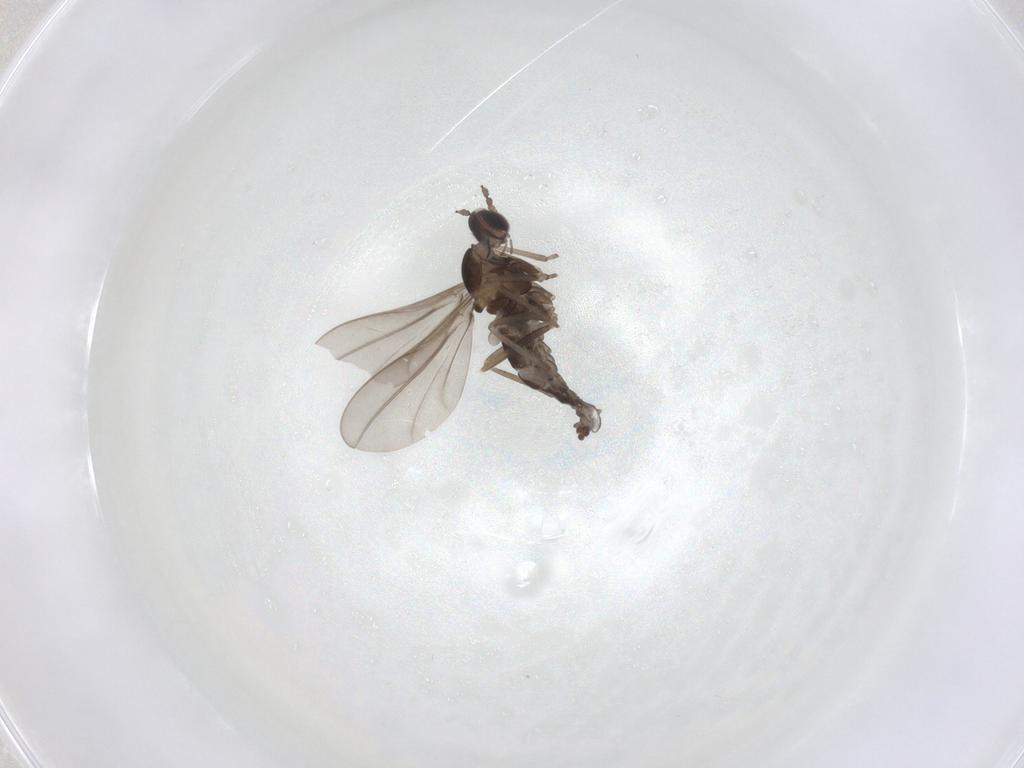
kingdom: Animalia
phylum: Arthropoda
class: Insecta
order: Diptera
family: Cecidomyiidae
